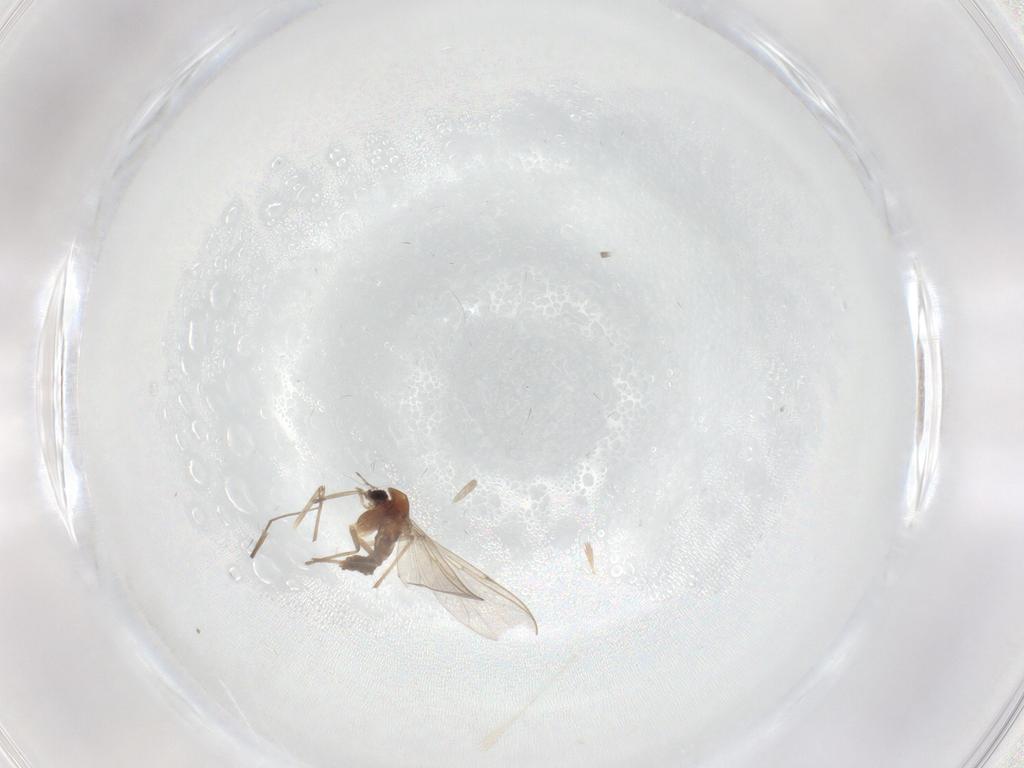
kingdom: Animalia
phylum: Arthropoda
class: Insecta
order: Diptera
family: Chironomidae
